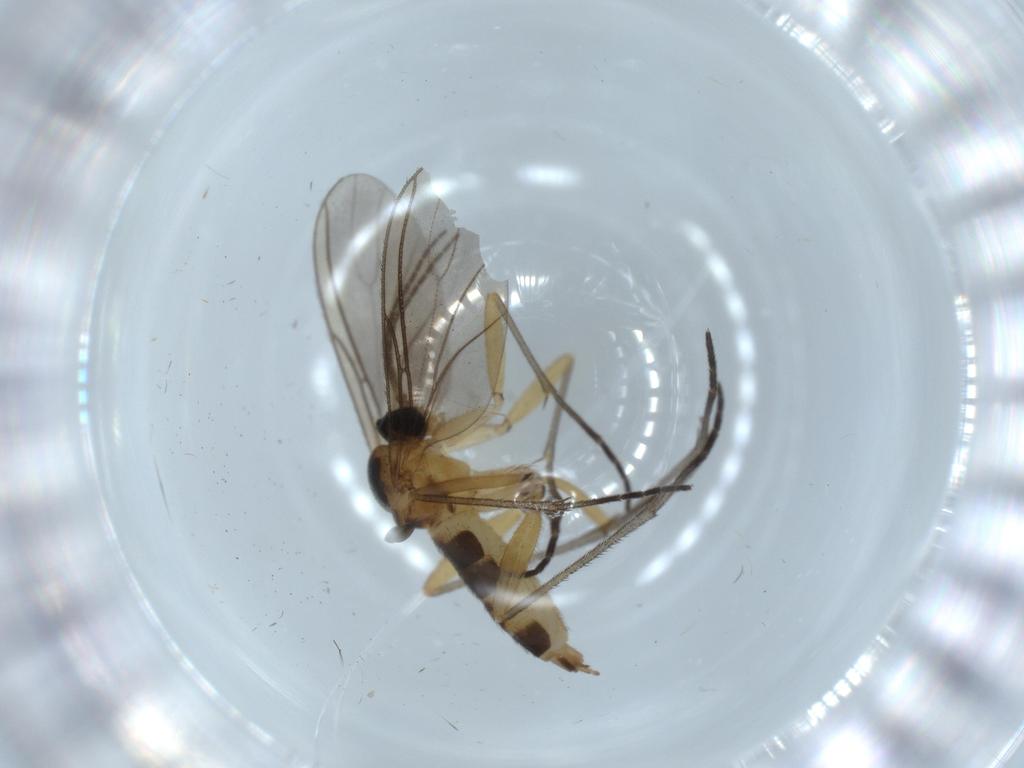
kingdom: Animalia
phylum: Arthropoda
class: Insecta
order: Diptera
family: Sciaridae
